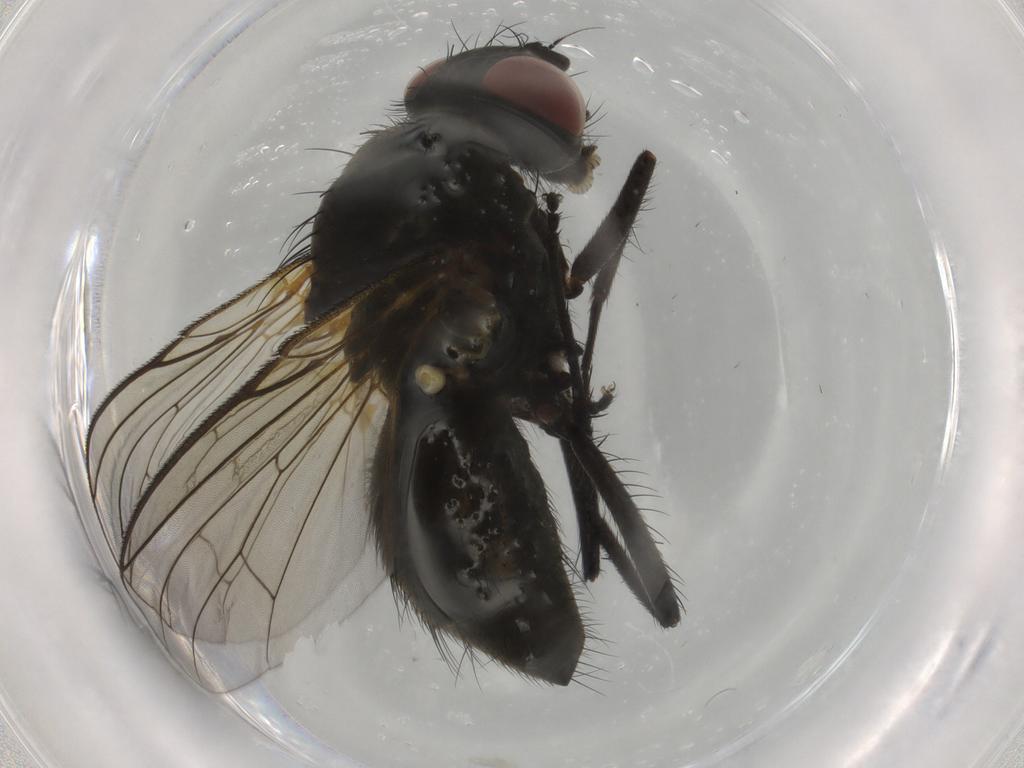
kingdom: Animalia
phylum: Arthropoda
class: Insecta
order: Diptera
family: Muscidae
